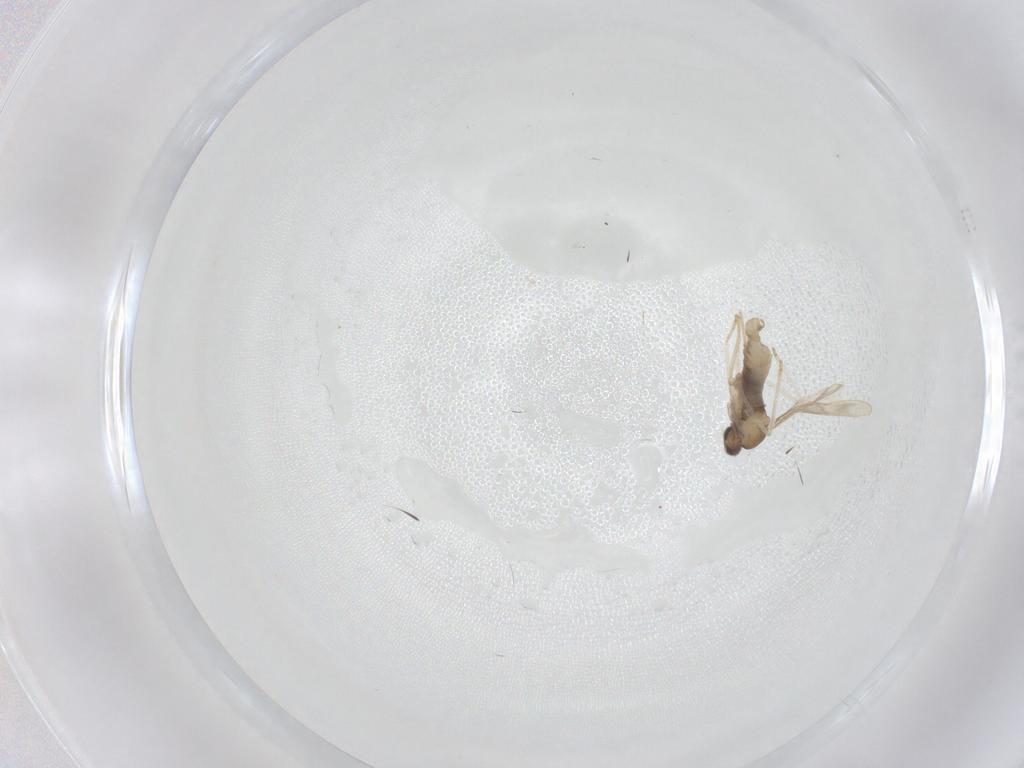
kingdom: Animalia
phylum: Arthropoda
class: Insecta
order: Diptera
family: Cecidomyiidae
